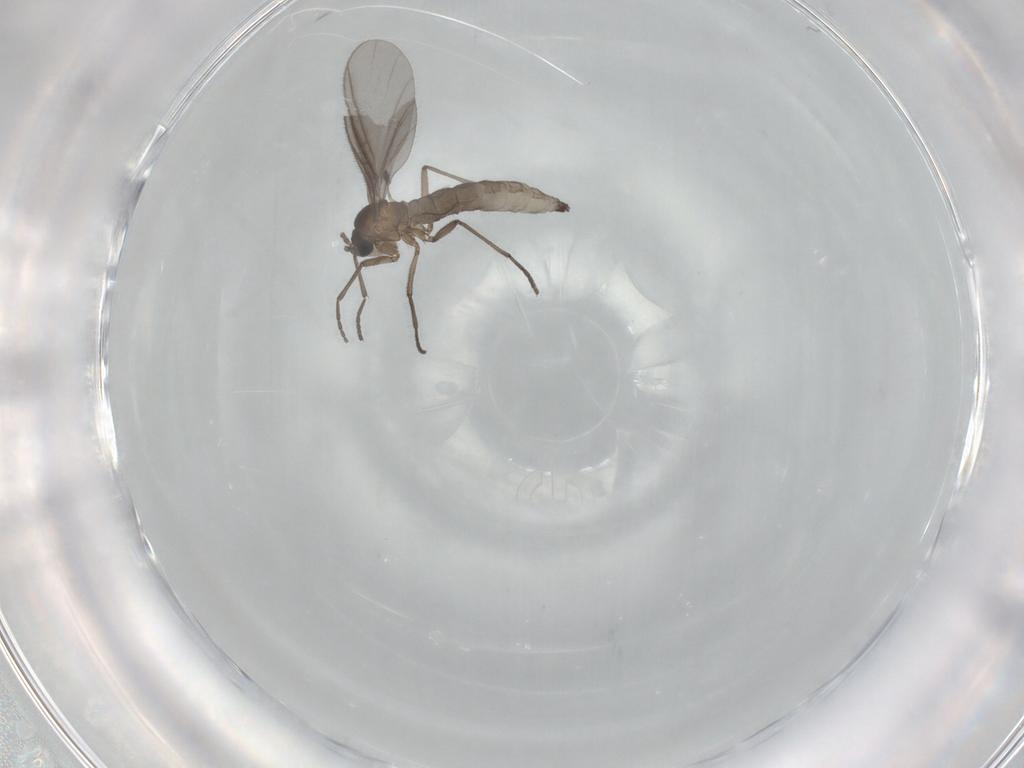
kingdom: Animalia
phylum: Arthropoda
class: Insecta
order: Diptera
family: Sciaridae
